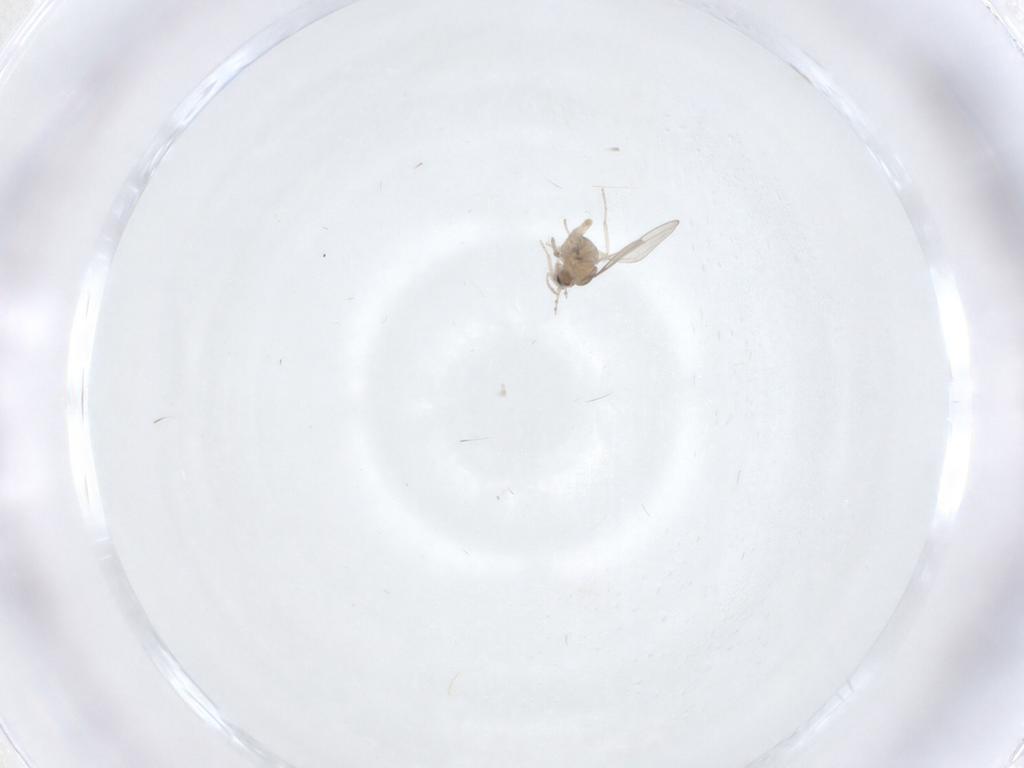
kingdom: Animalia
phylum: Arthropoda
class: Insecta
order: Diptera
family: Cecidomyiidae
